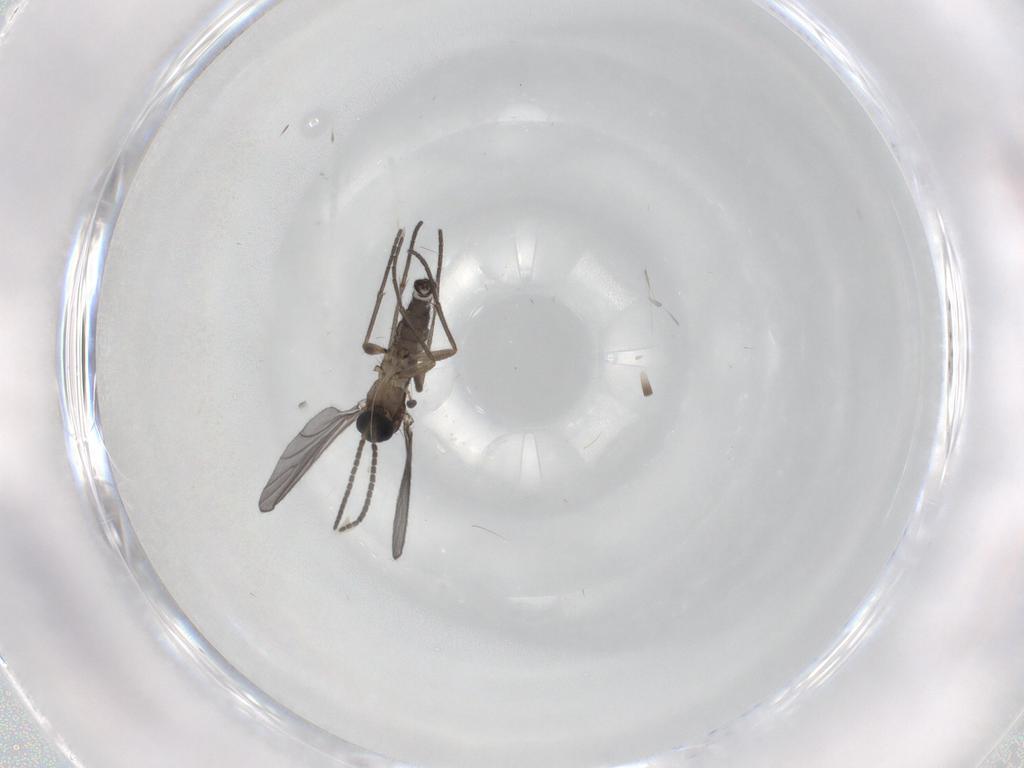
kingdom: Animalia
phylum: Arthropoda
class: Insecta
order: Diptera
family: Sciaridae
